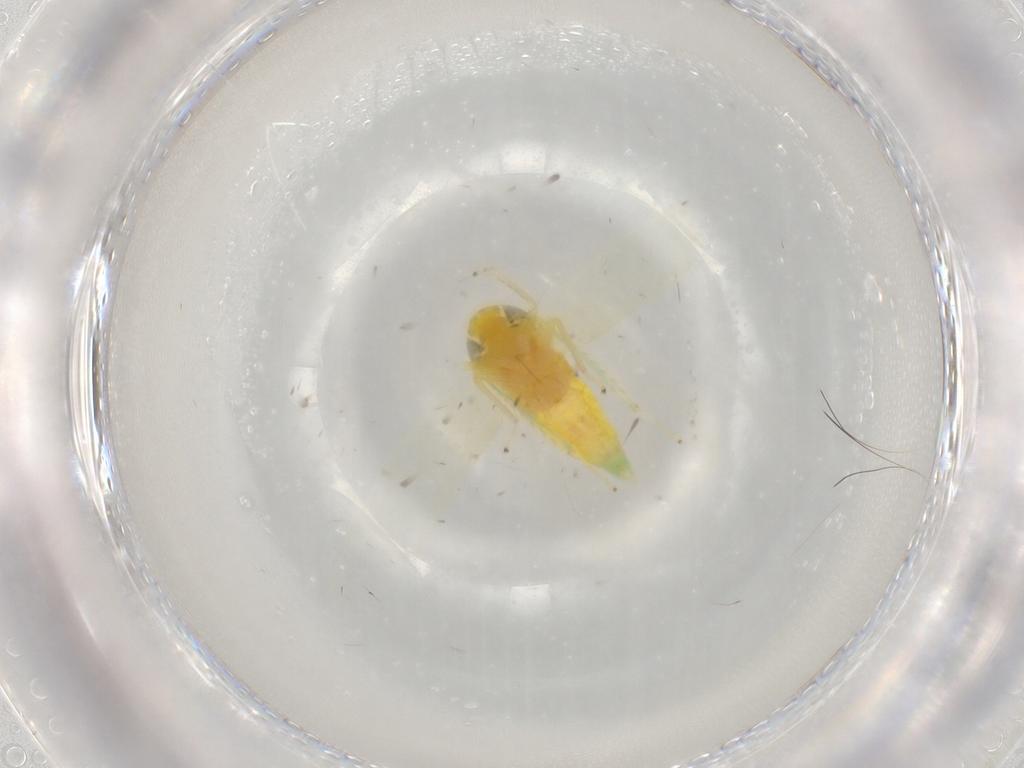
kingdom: Animalia
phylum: Arthropoda
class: Insecta
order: Hemiptera
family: Cicadellidae
